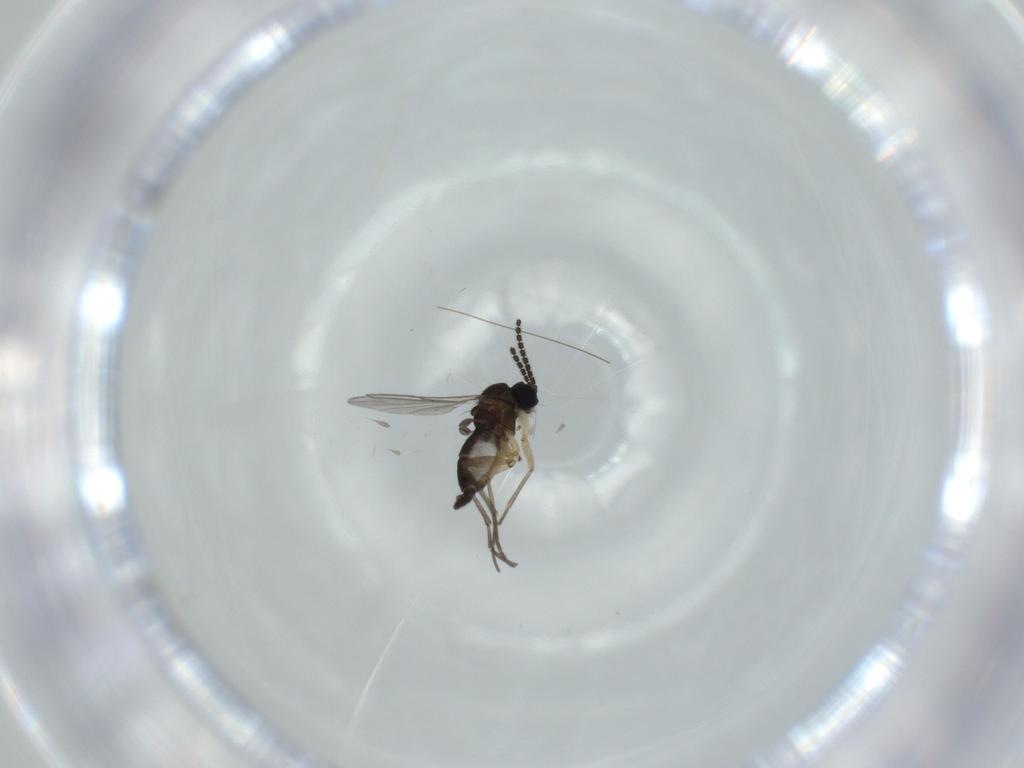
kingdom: Animalia
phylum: Arthropoda
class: Insecta
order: Diptera
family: Sciaridae
